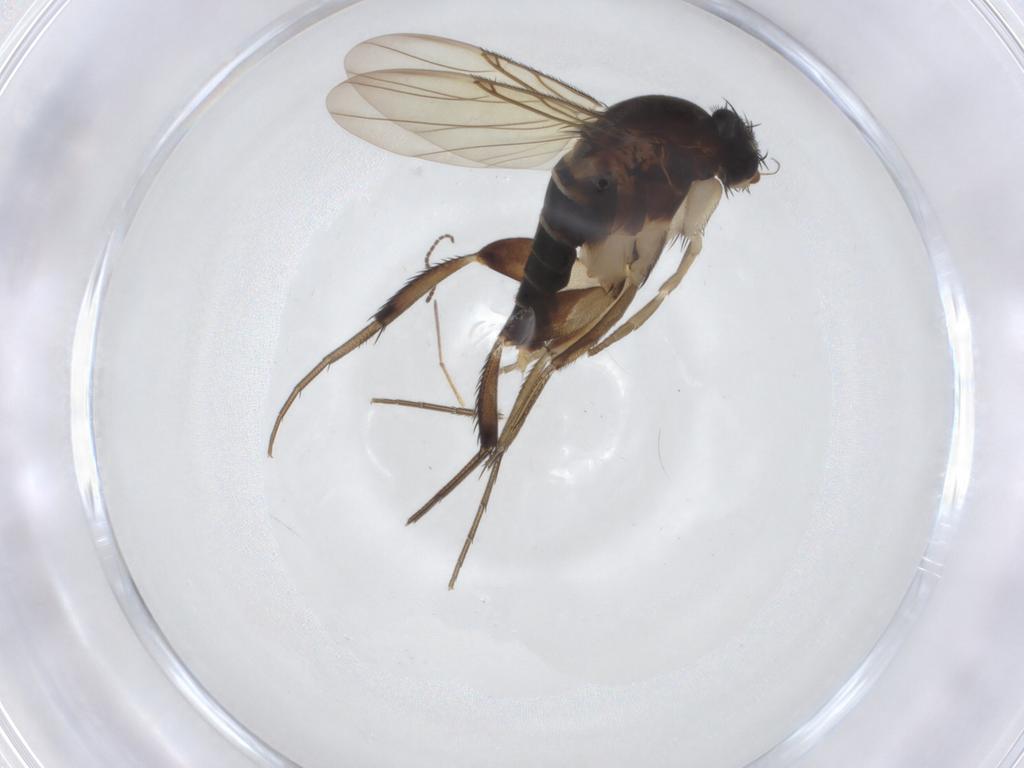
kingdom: Animalia
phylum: Arthropoda
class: Insecta
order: Diptera
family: Phoridae
